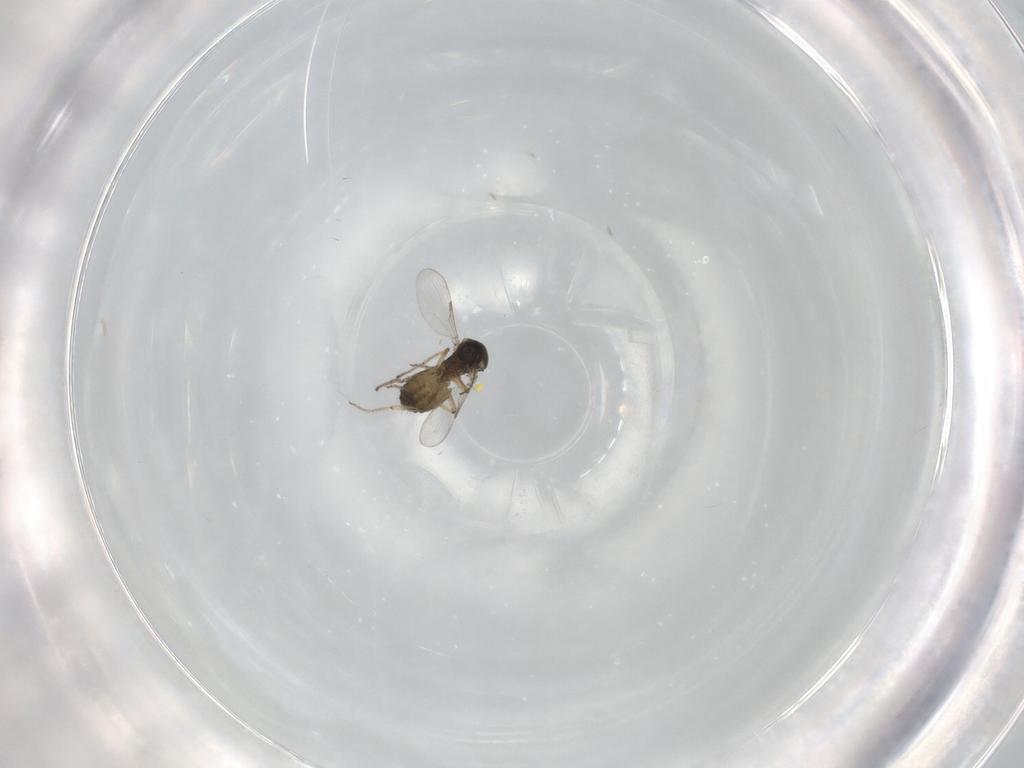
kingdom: Animalia
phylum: Arthropoda
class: Insecta
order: Diptera
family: Ceratopogonidae
